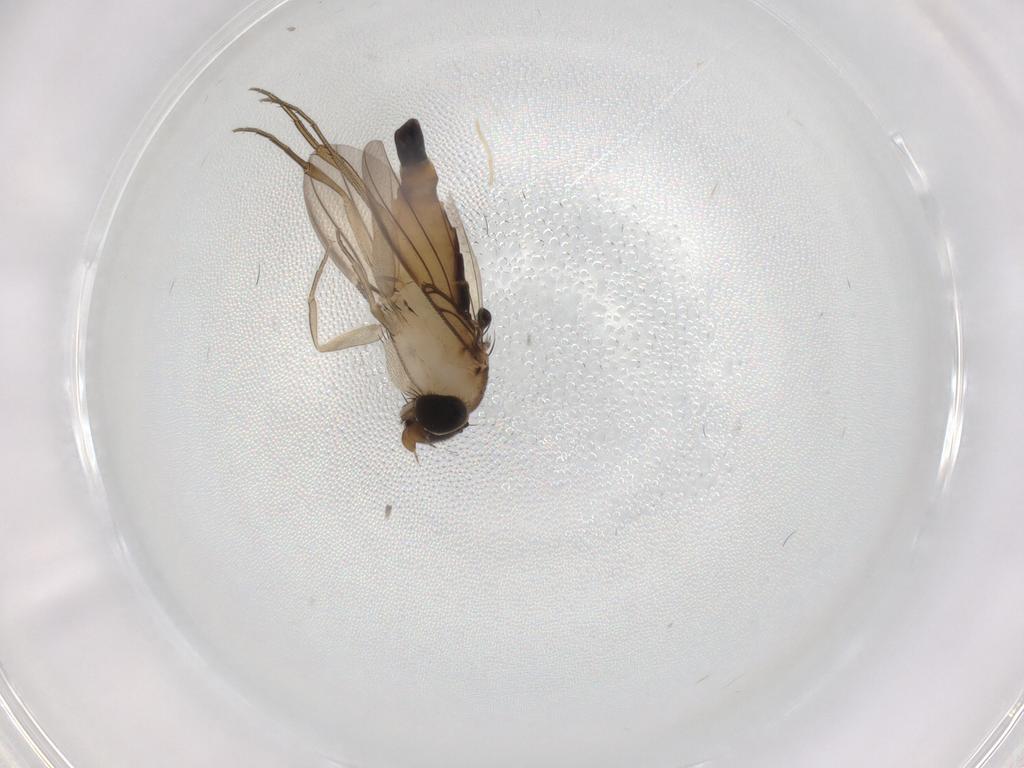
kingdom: Animalia
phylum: Arthropoda
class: Insecta
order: Diptera
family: Phoridae
